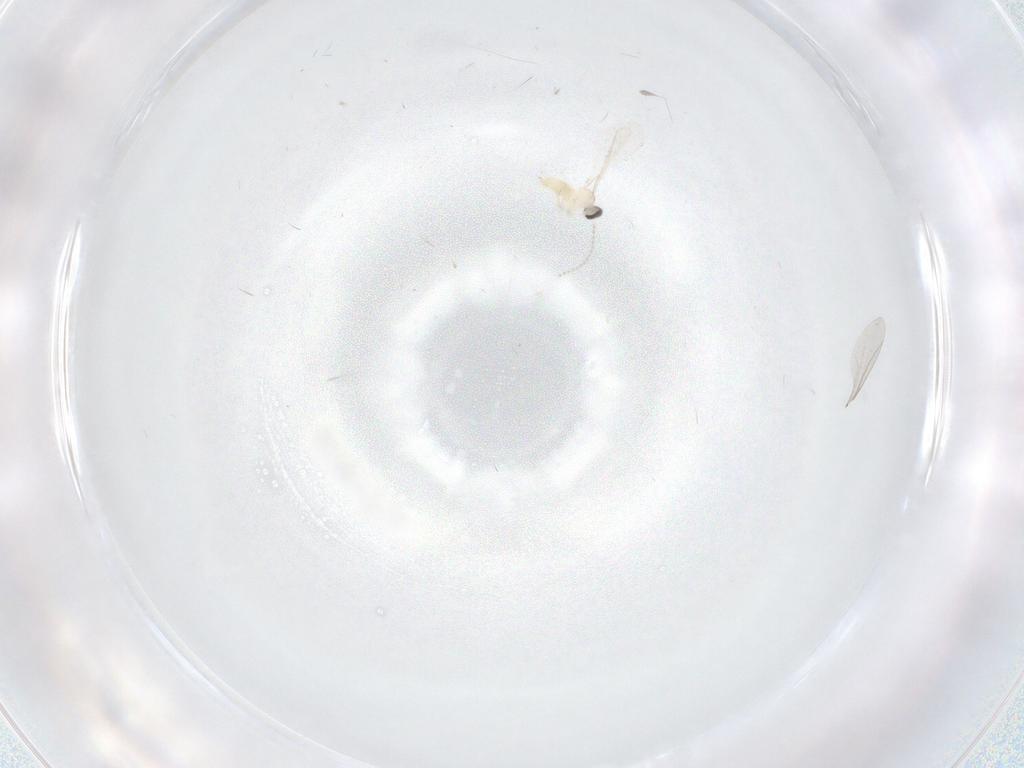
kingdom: Animalia
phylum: Arthropoda
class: Insecta
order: Diptera
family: Cecidomyiidae
